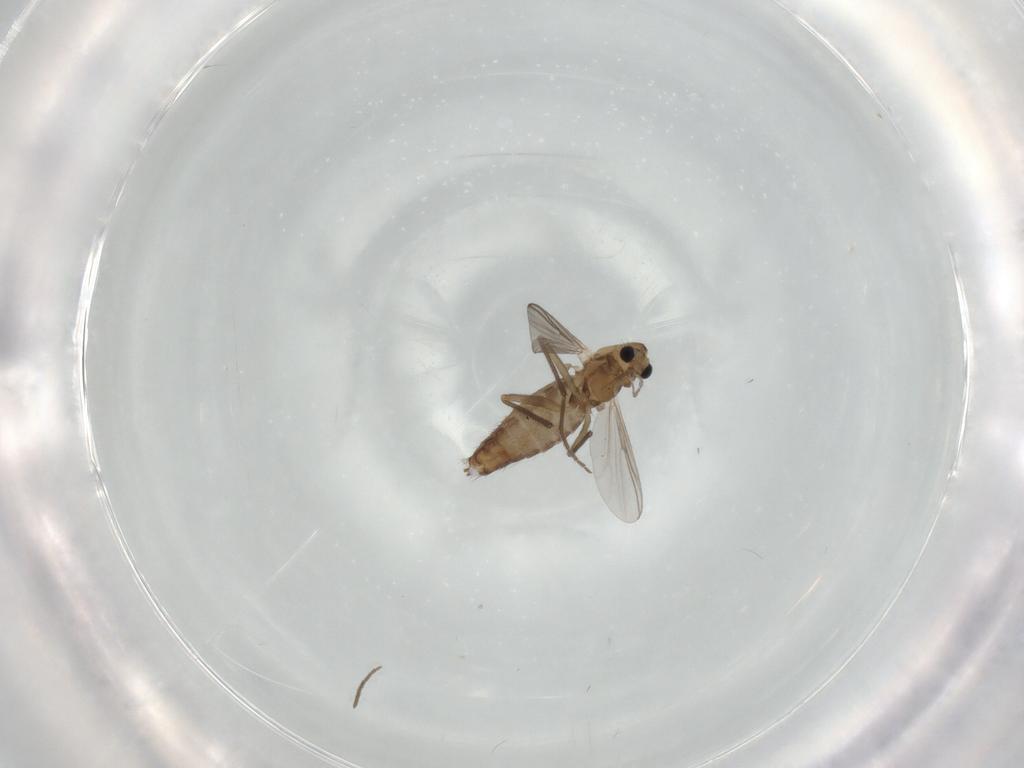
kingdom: Animalia
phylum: Arthropoda
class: Insecta
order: Diptera
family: Chironomidae
